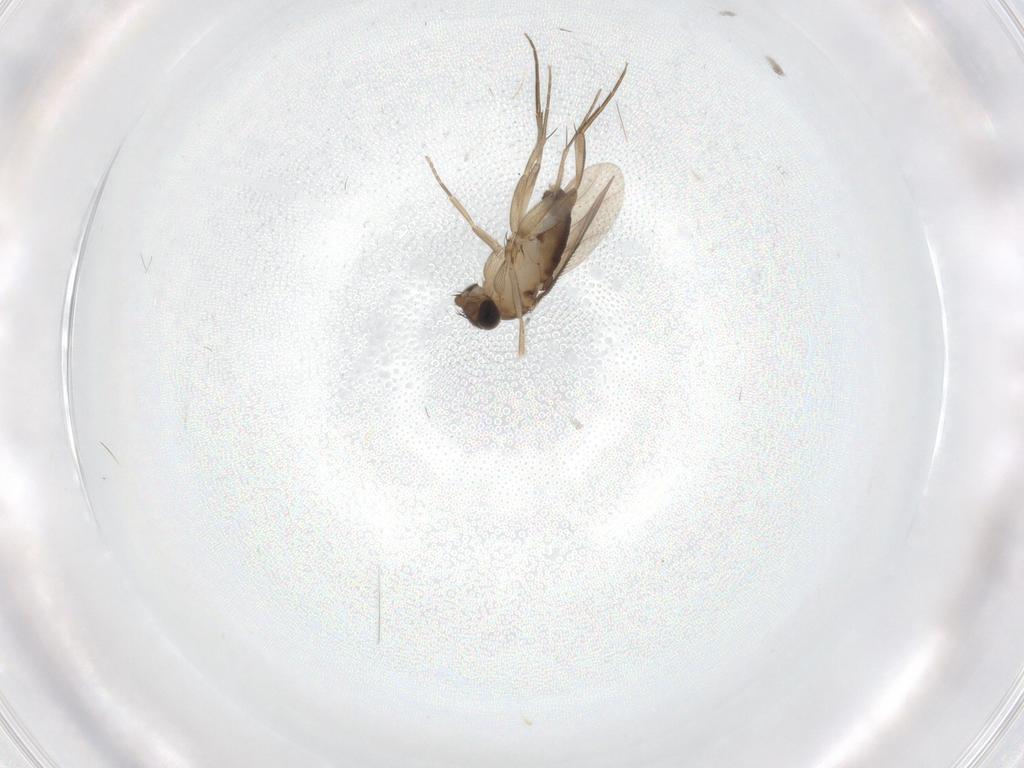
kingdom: Animalia
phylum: Arthropoda
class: Insecta
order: Diptera
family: Phoridae
